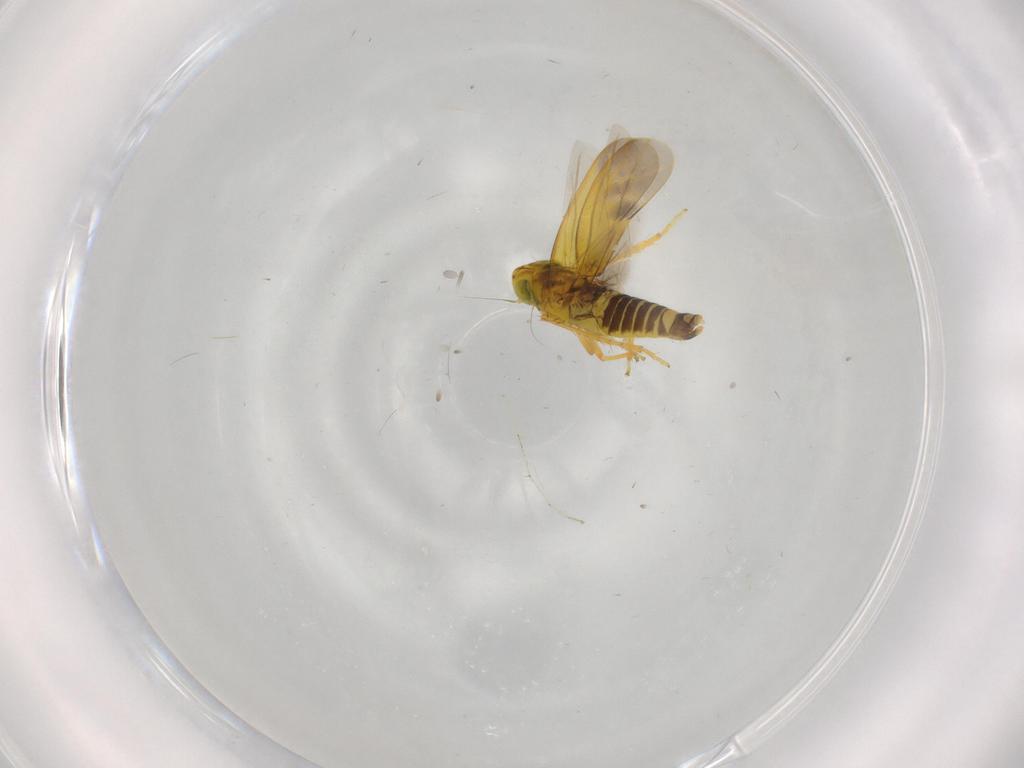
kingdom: Animalia
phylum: Arthropoda
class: Insecta
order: Hemiptera
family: Cicadellidae
